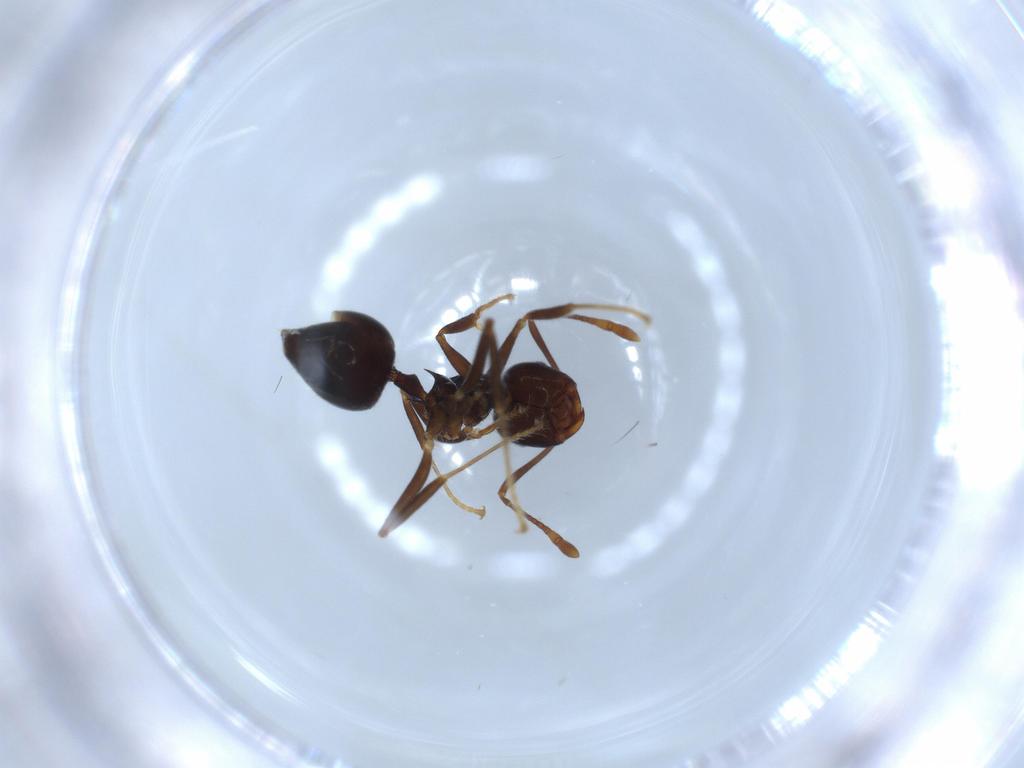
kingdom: Animalia
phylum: Arthropoda
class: Insecta
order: Hymenoptera
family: Formicidae
